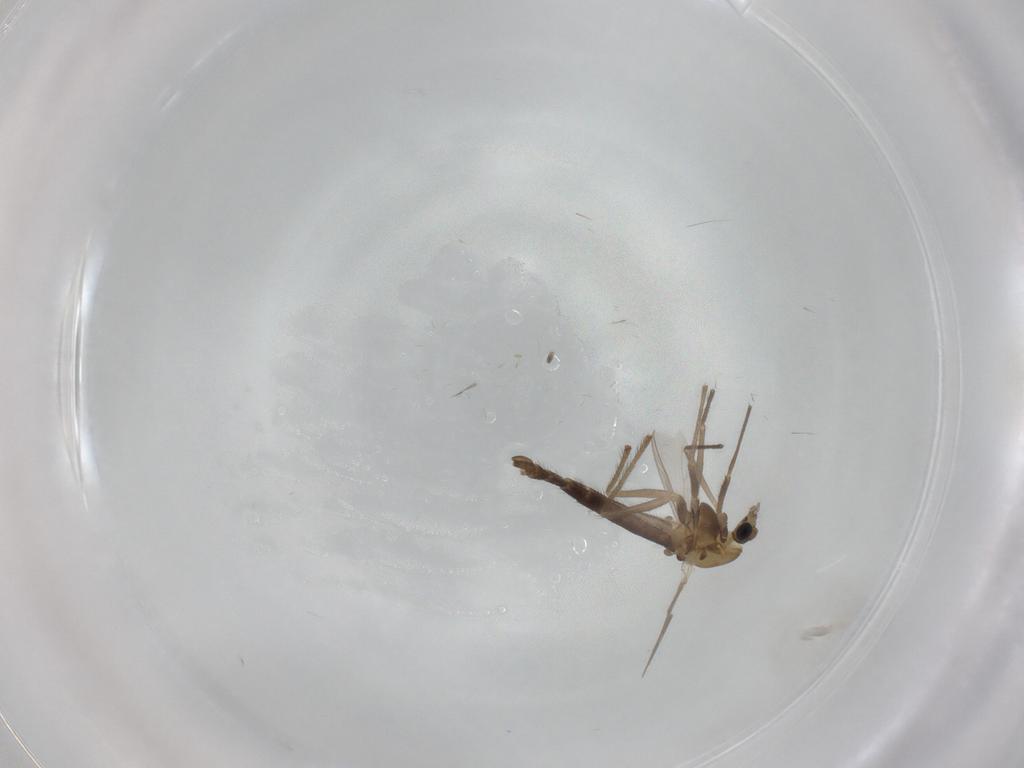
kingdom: Animalia
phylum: Arthropoda
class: Insecta
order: Diptera
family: Chironomidae
